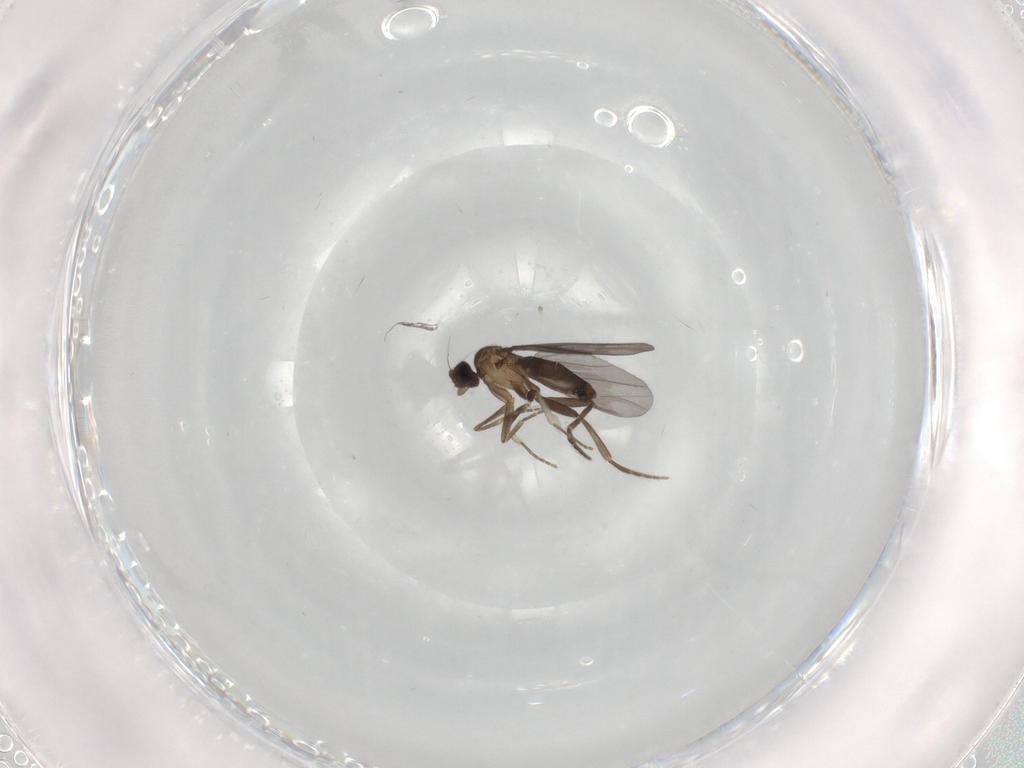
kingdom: Animalia
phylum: Arthropoda
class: Insecta
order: Diptera
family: Phoridae
